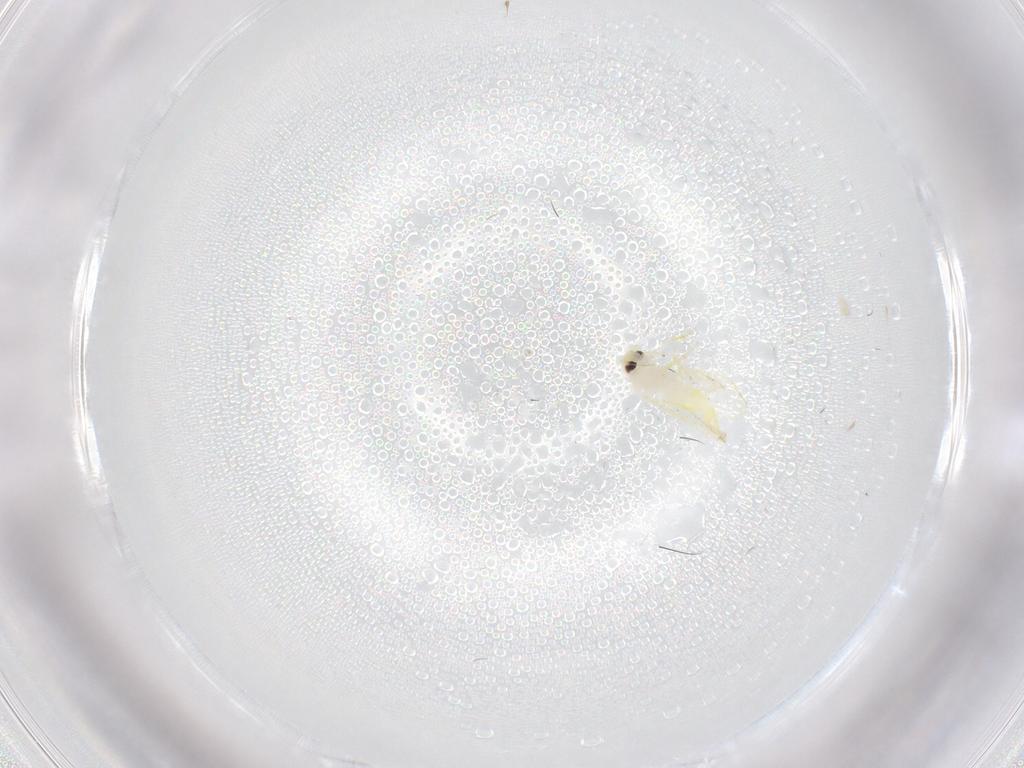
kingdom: Animalia
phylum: Arthropoda
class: Insecta
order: Hemiptera
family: Aleyrodidae
